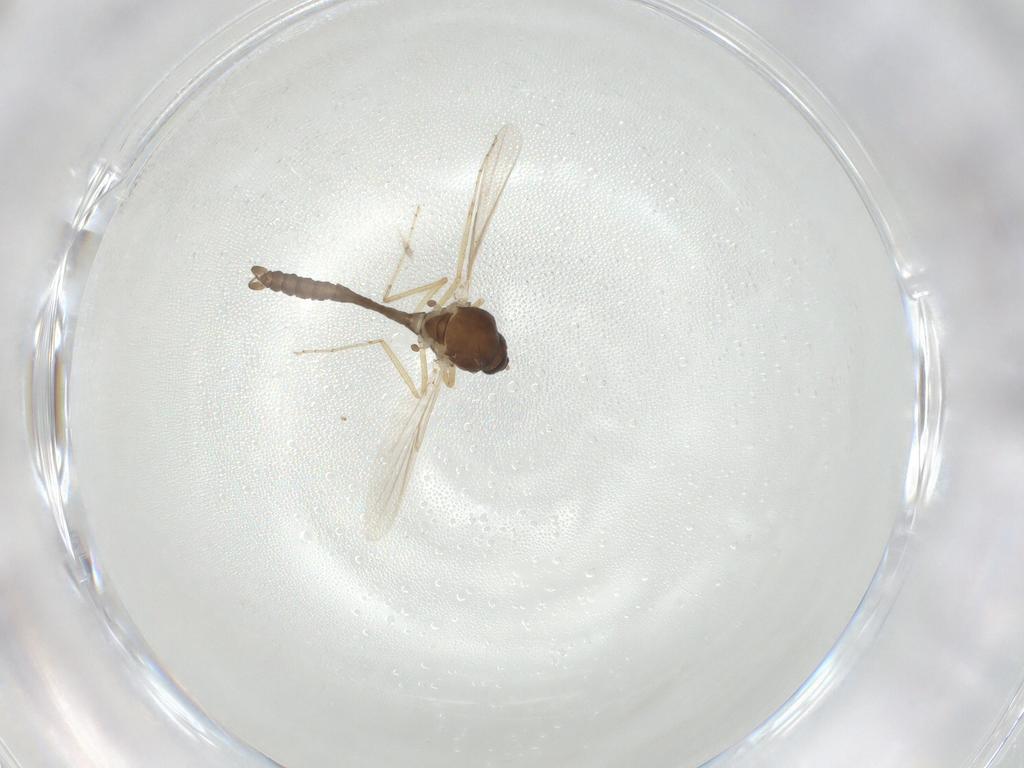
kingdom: Animalia
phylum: Arthropoda
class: Insecta
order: Diptera
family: Ceratopogonidae
